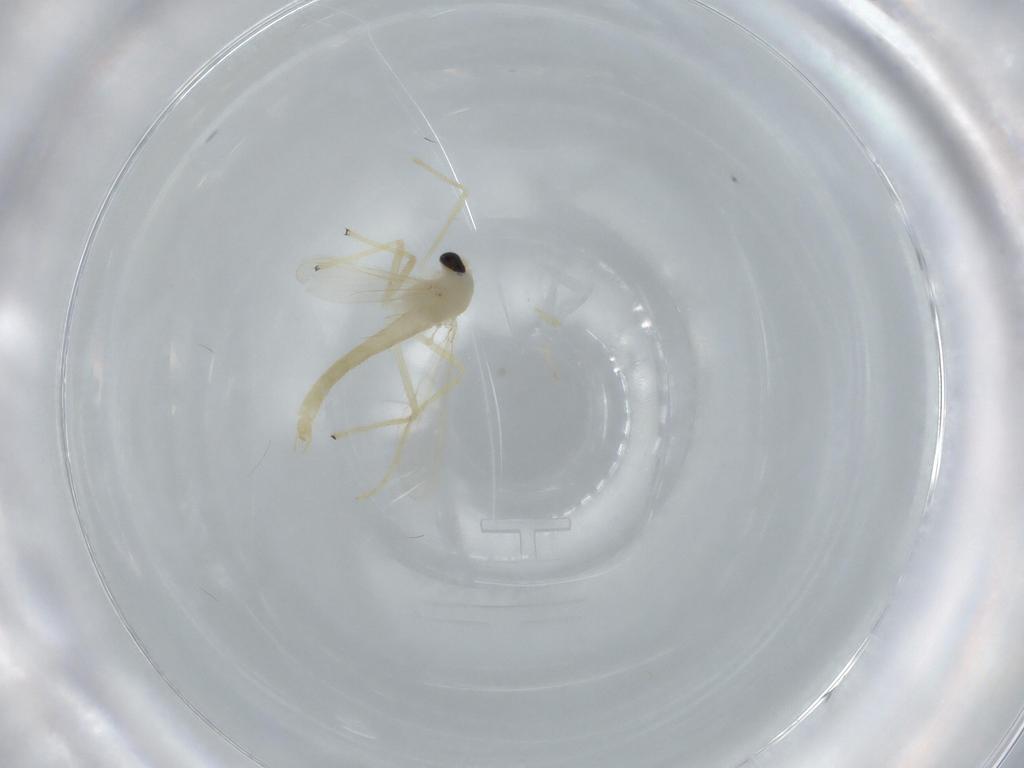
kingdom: Animalia
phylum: Arthropoda
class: Insecta
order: Diptera
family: Chironomidae
